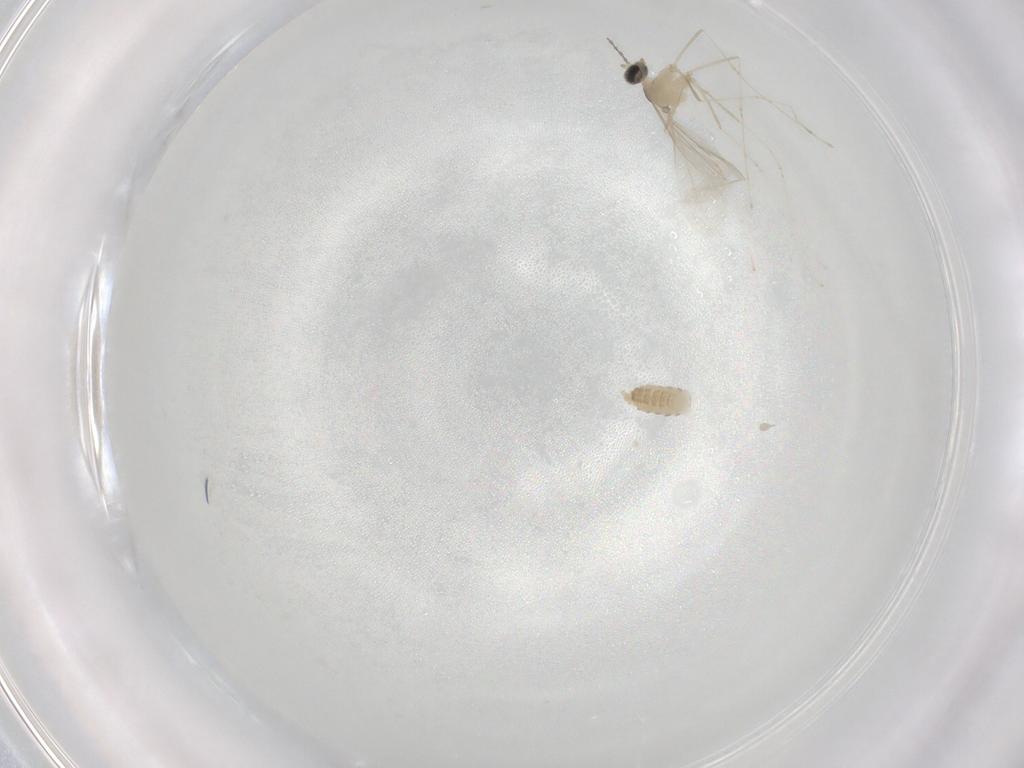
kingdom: Animalia
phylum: Arthropoda
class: Insecta
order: Diptera
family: Cecidomyiidae
